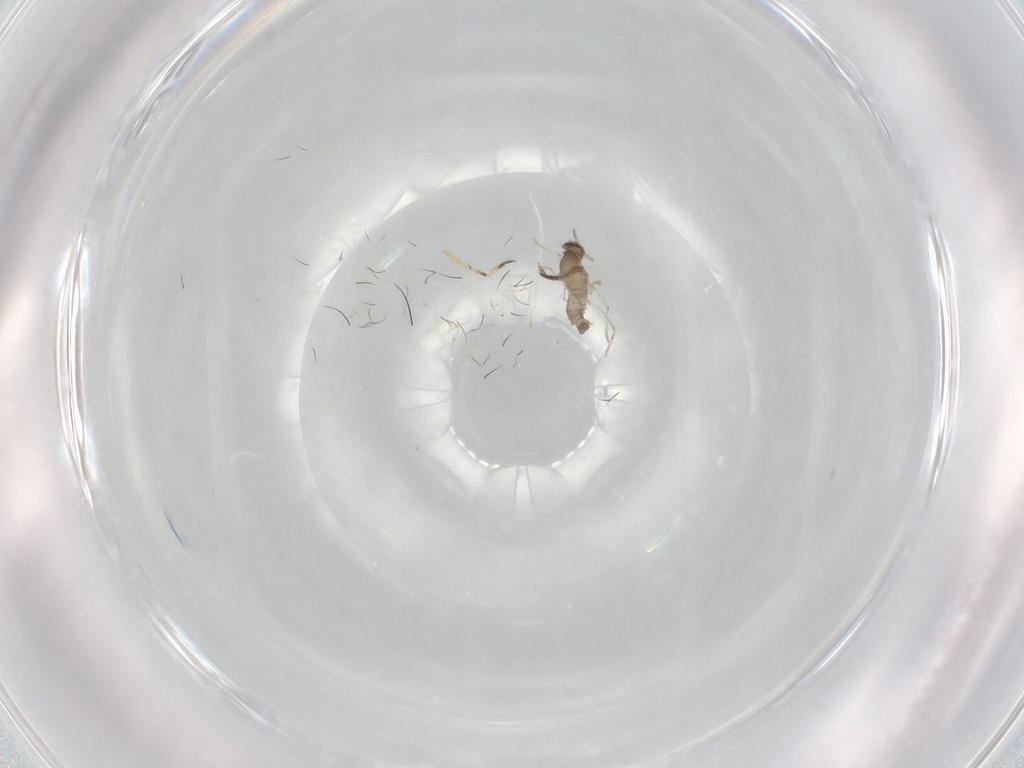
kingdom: Animalia
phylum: Arthropoda
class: Insecta
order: Diptera
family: Cecidomyiidae
